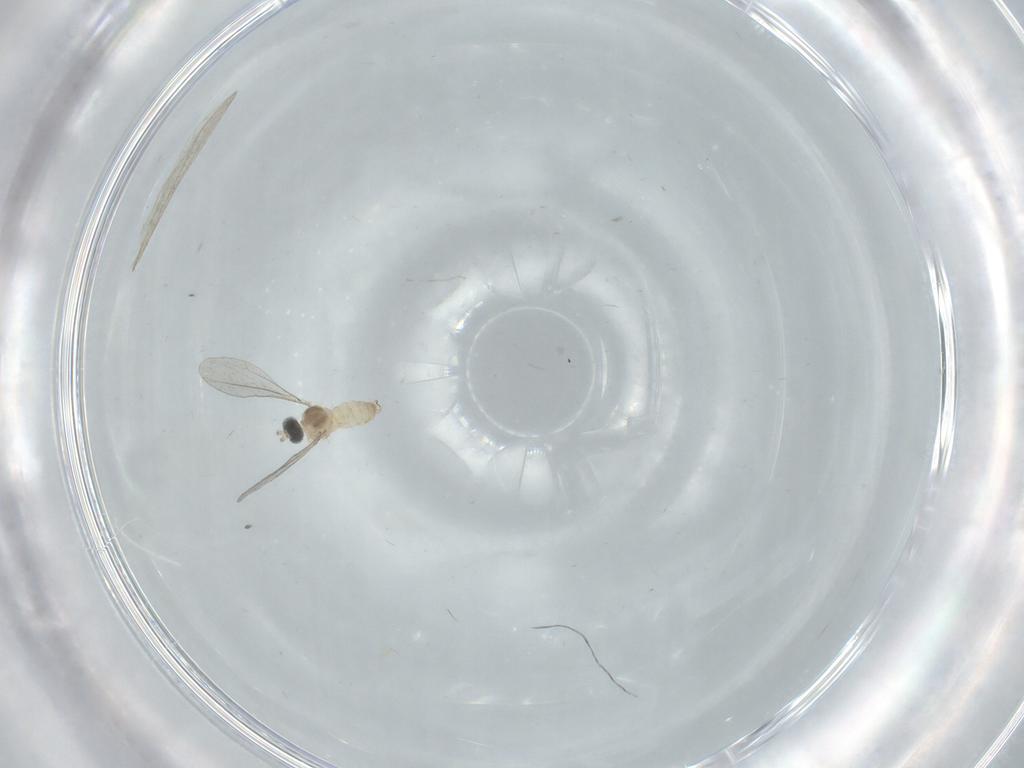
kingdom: Animalia
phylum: Arthropoda
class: Insecta
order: Diptera
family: Cecidomyiidae
